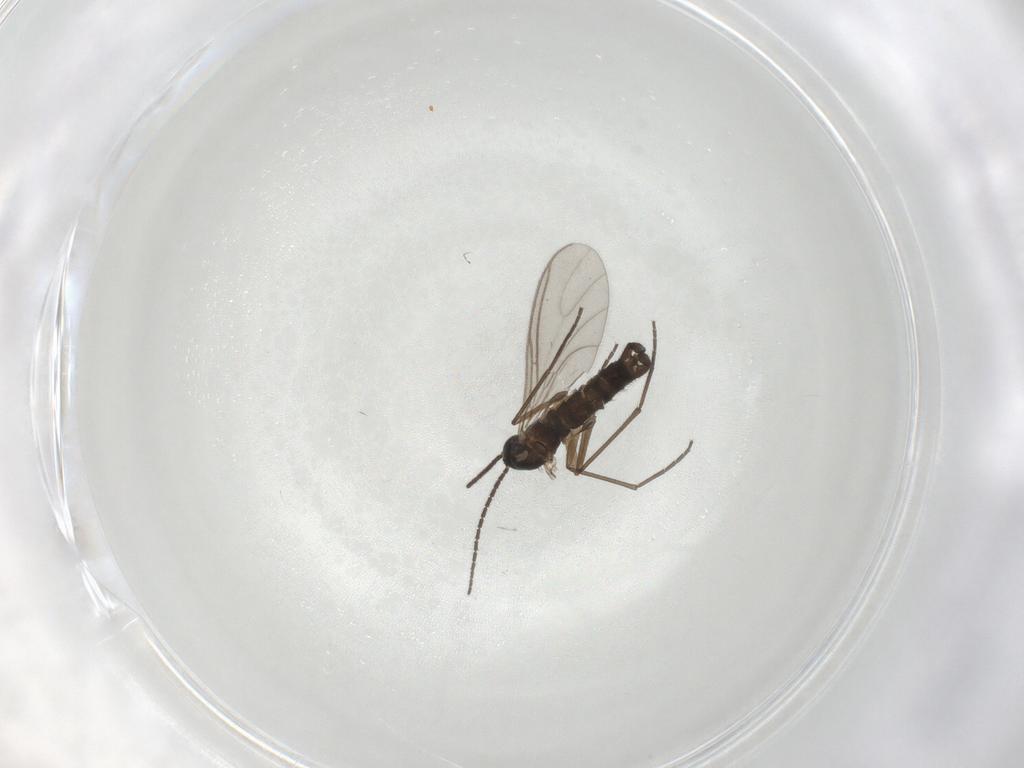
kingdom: Animalia
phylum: Arthropoda
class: Insecta
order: Diptera
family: Sciaridae
